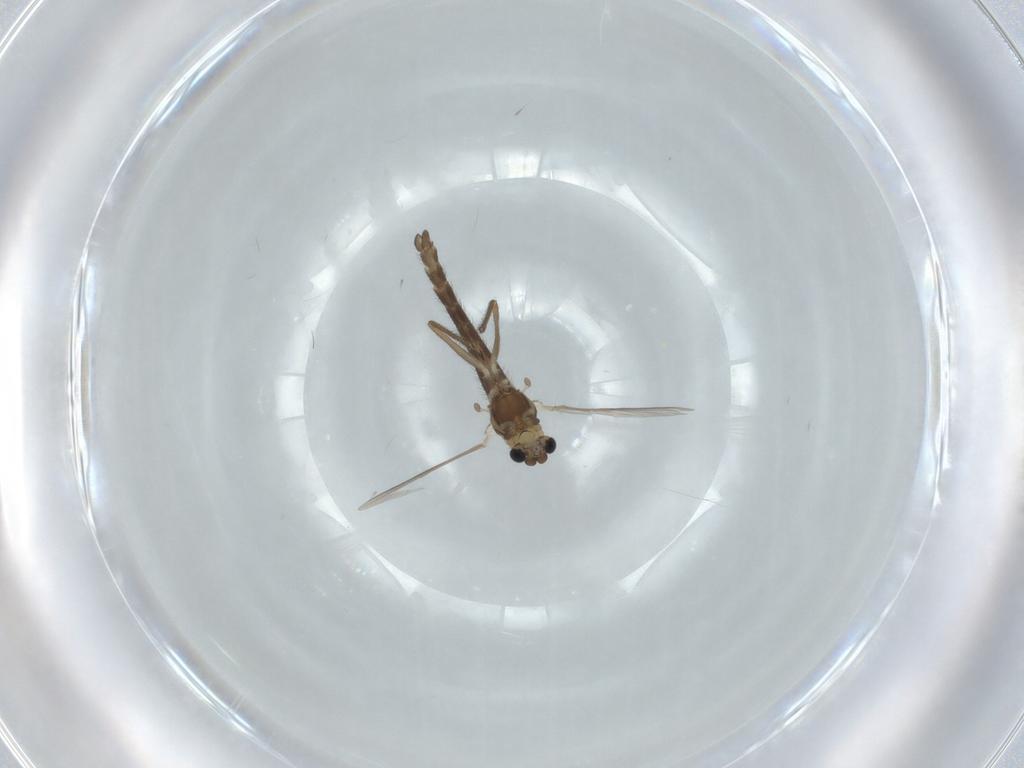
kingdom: Animalia
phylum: Arthropoda
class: Insecta
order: Diptera
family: Chironomidae
